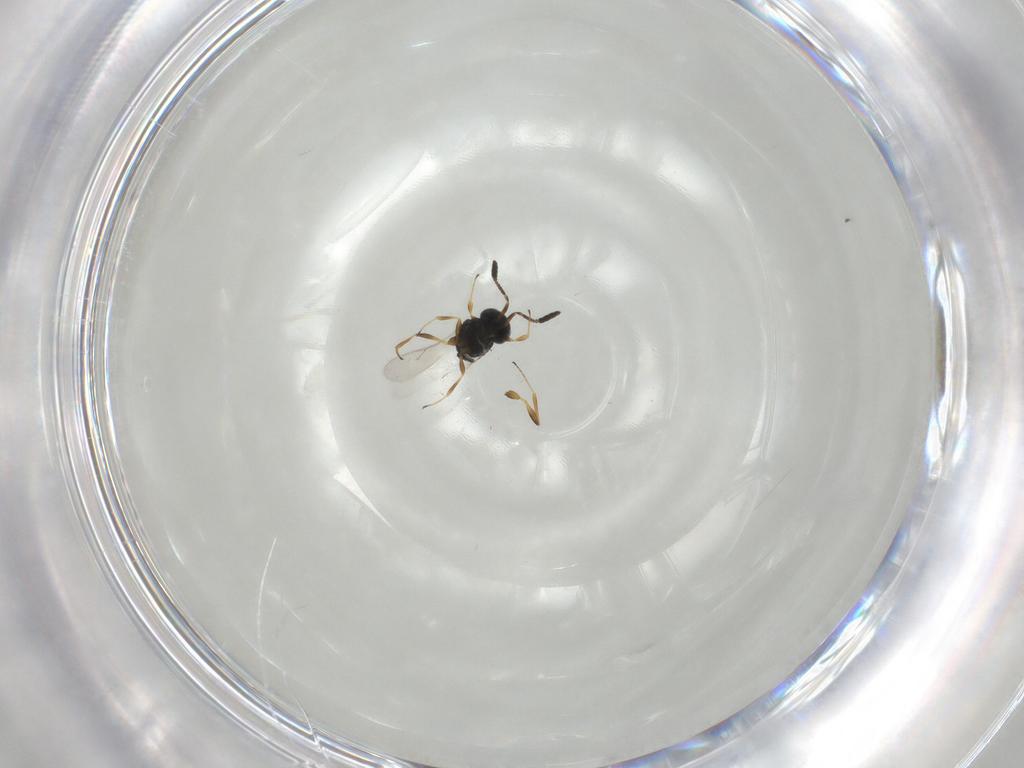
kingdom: Animalia
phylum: Arthropoda
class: Insecta
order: Hymenoptera
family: Scelionidae
